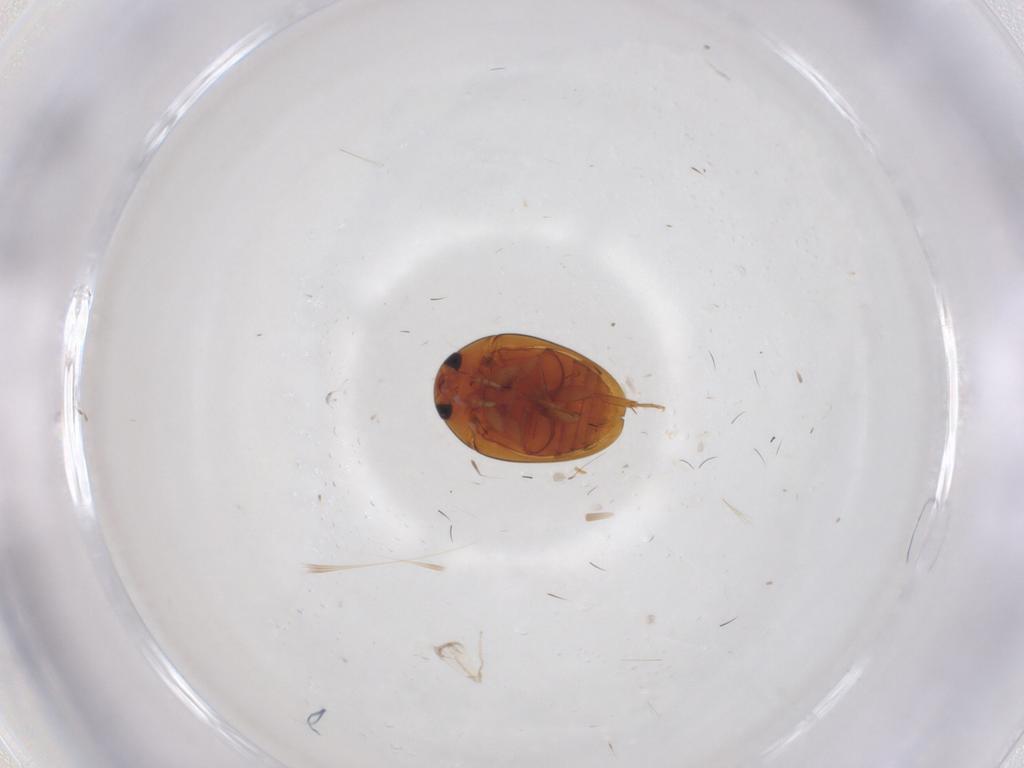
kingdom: Animalia
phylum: Arthropoda
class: Insecta
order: Coleoptera
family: Phalacridae
